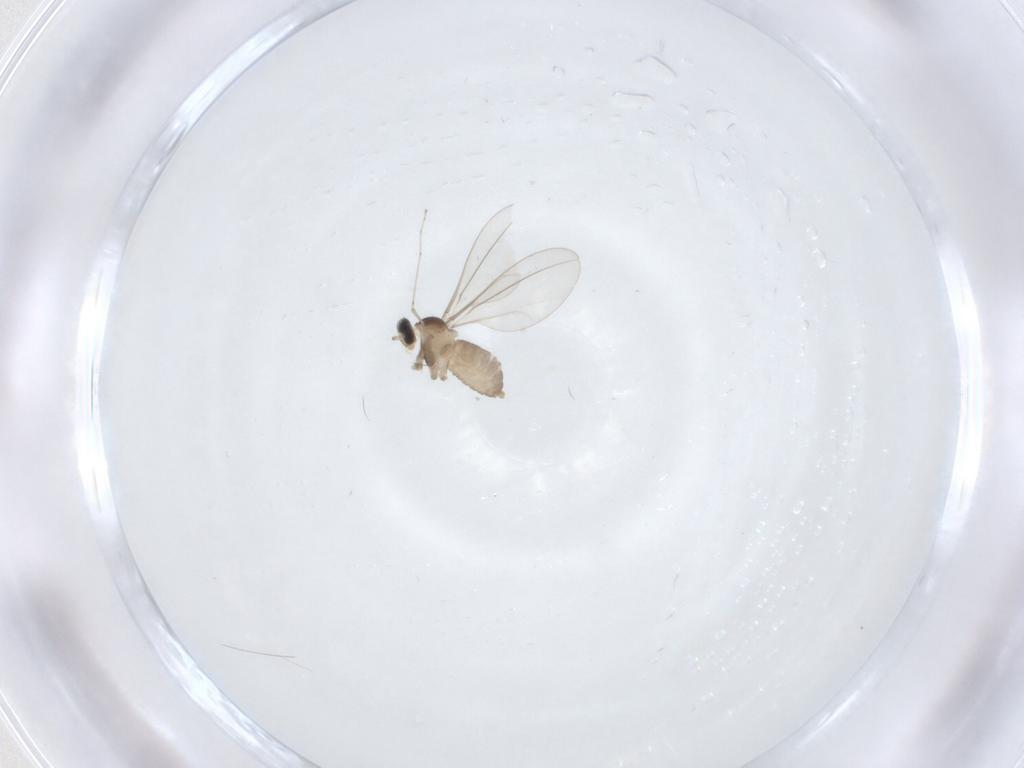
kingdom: Animalia
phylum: Arthropoda
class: Insecta
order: Diptera
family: Cecidomyiidae
